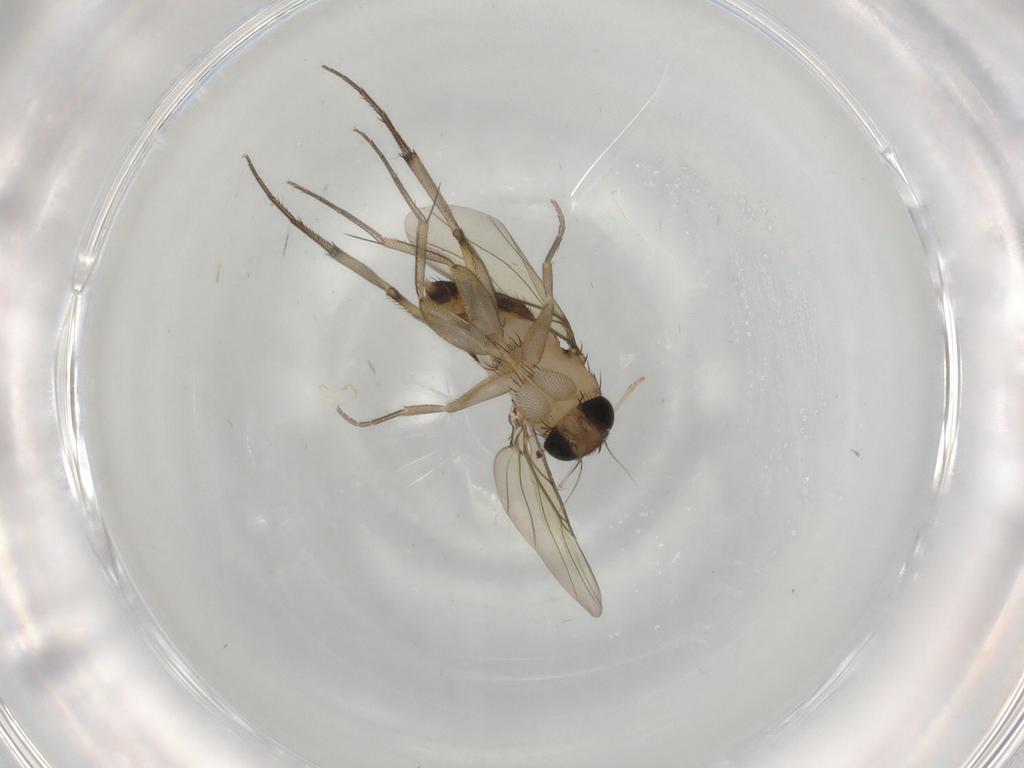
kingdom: Animalia
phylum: Arthropoda
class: Insecta
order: Diptera
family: Phoridae
